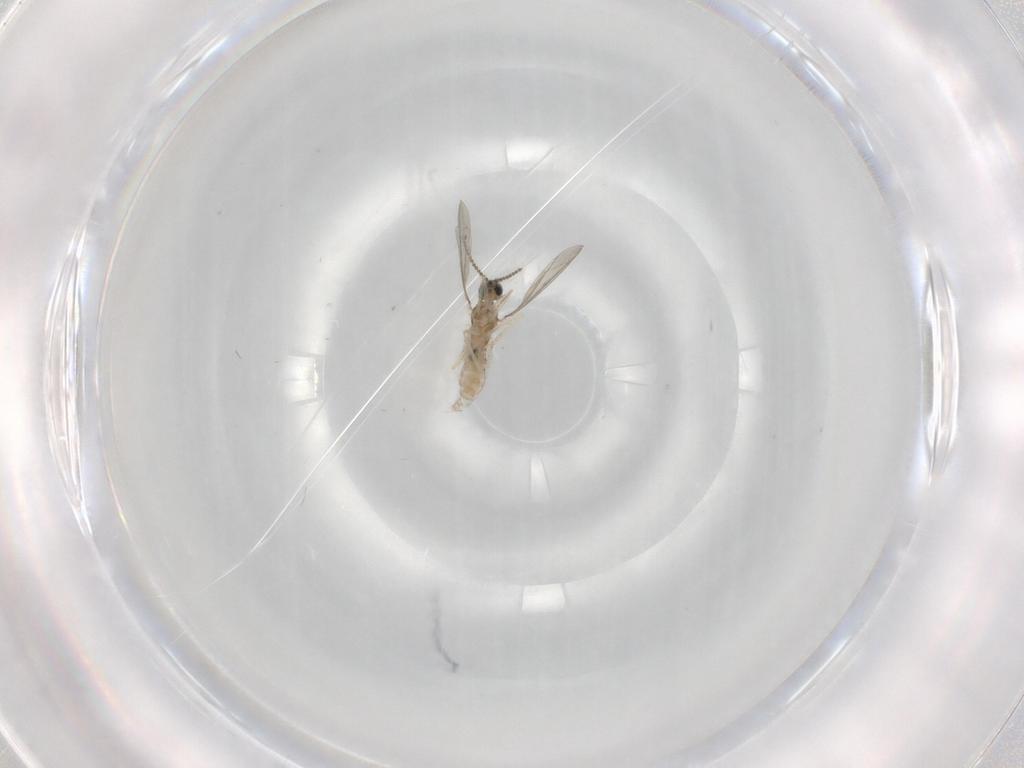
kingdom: Animalia
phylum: Arthropoda
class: Insecta
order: Diptera
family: Cecidomyiidae
